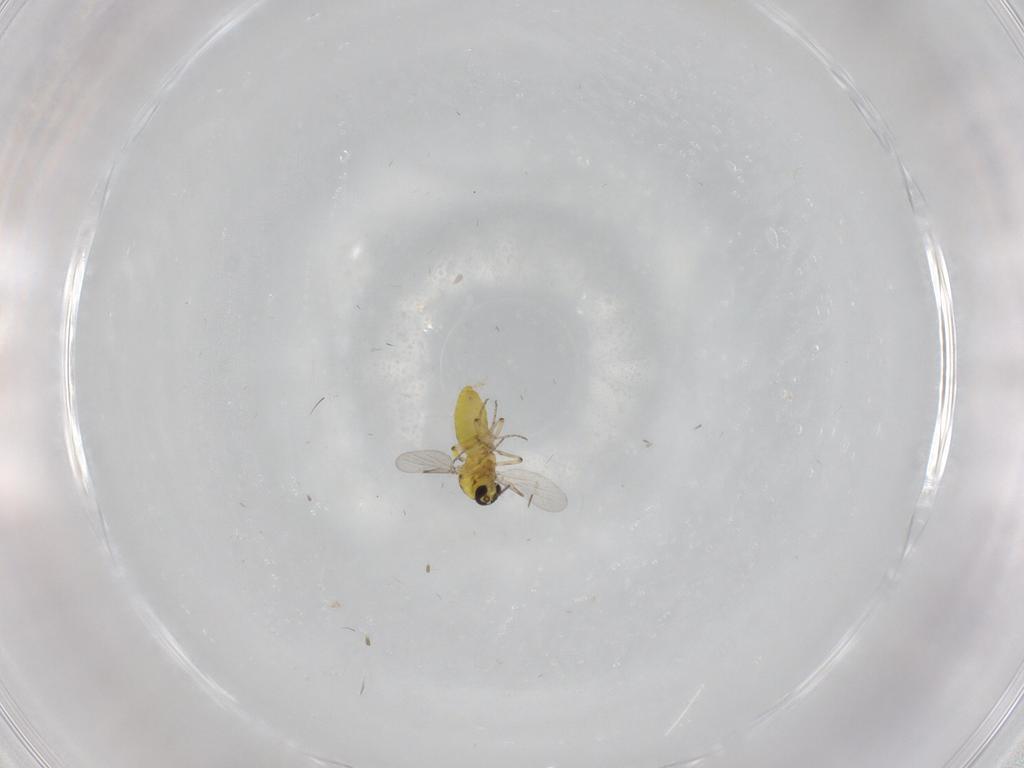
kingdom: Animalia
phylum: Arthropoda
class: Insecta
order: Diptera
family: Ceratopogonidae
